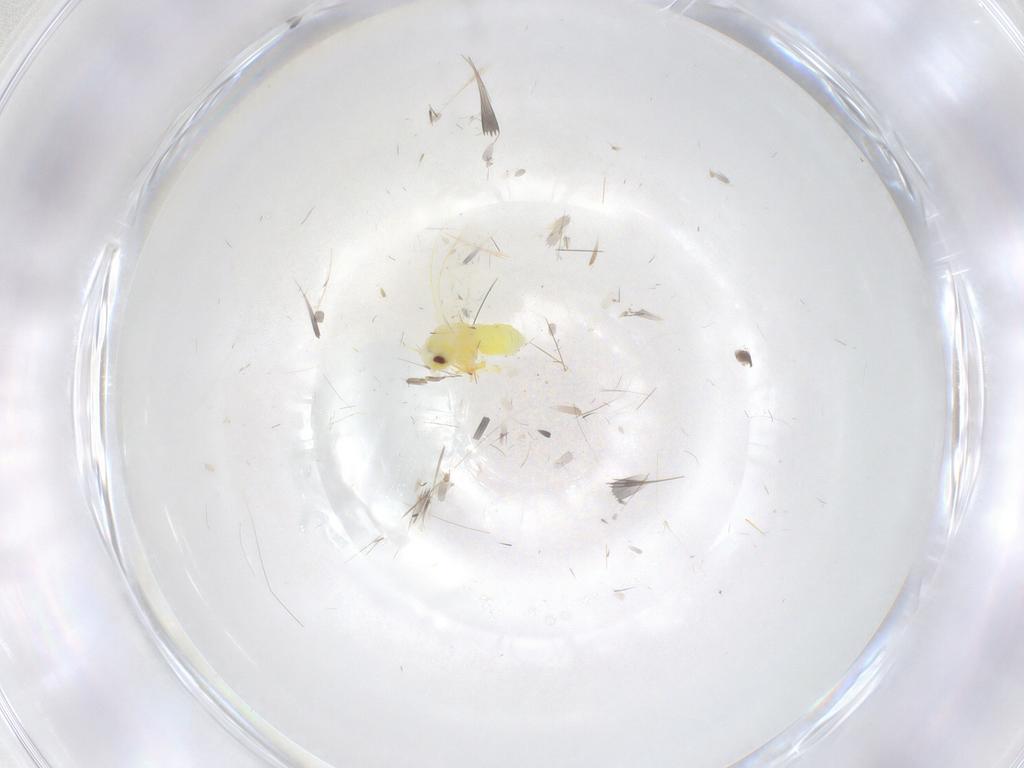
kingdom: Animalia
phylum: Arthropoda
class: Insecta
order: Hemiptera
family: Aleyrodidae
